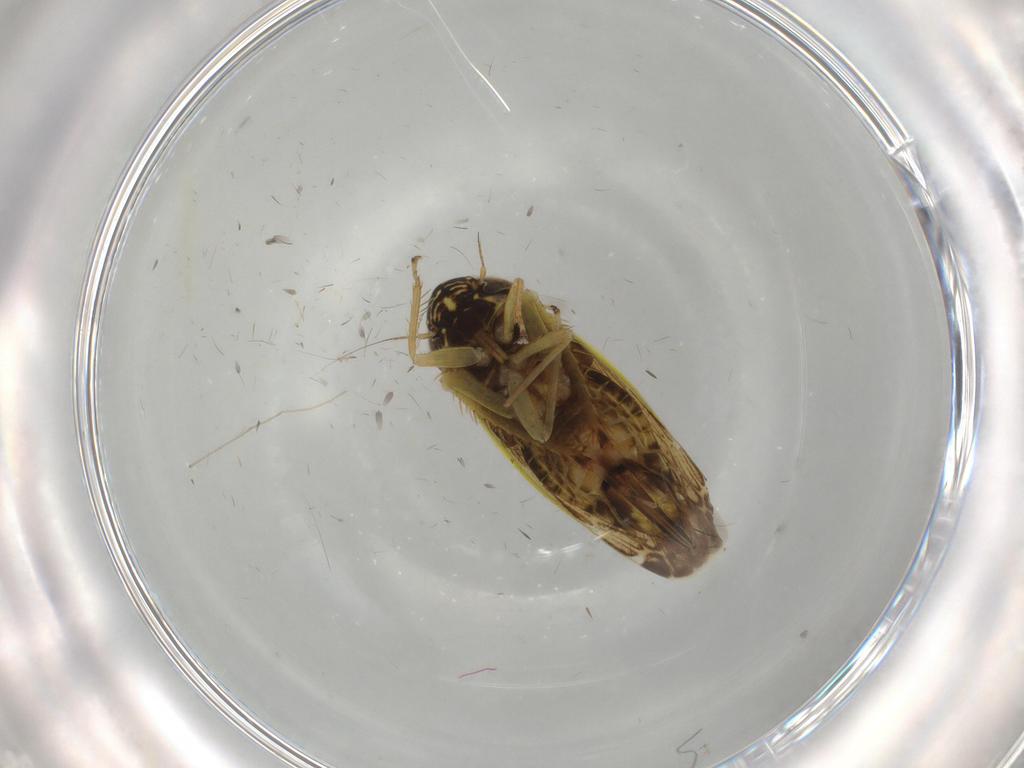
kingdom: Animalia
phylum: Arthropoda
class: Insecta
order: Hemiptera
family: Cicadellidae
